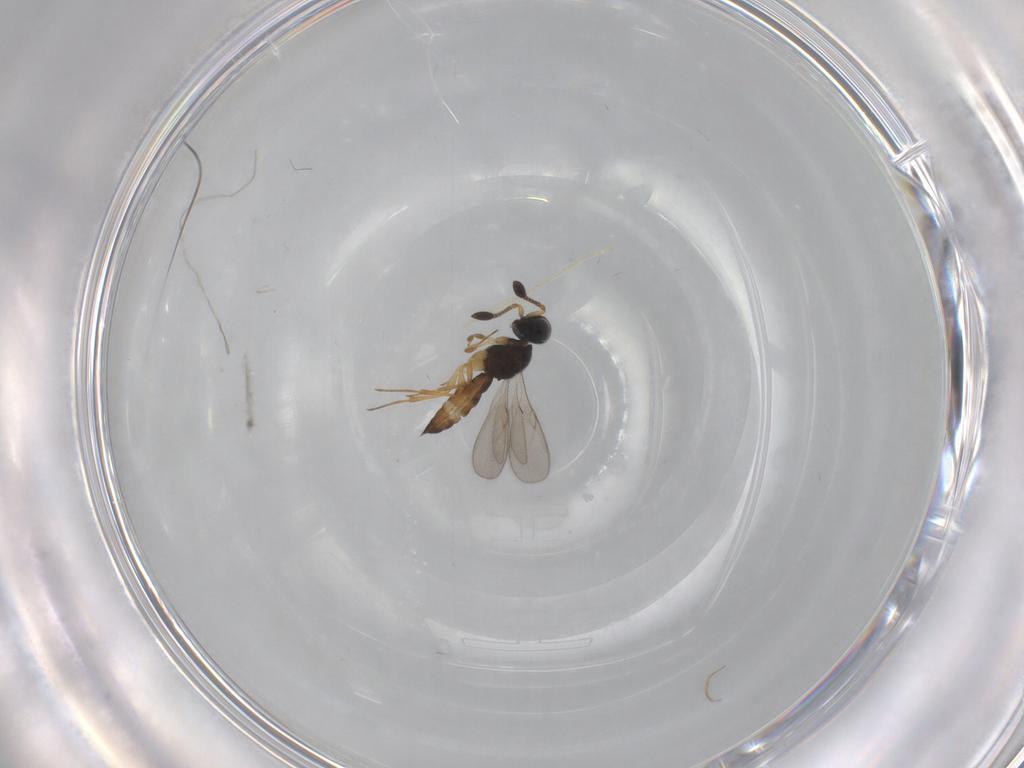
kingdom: Animalia
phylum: Arthropoda
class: Insecta
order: Hymenoptera
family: Scelionidae
